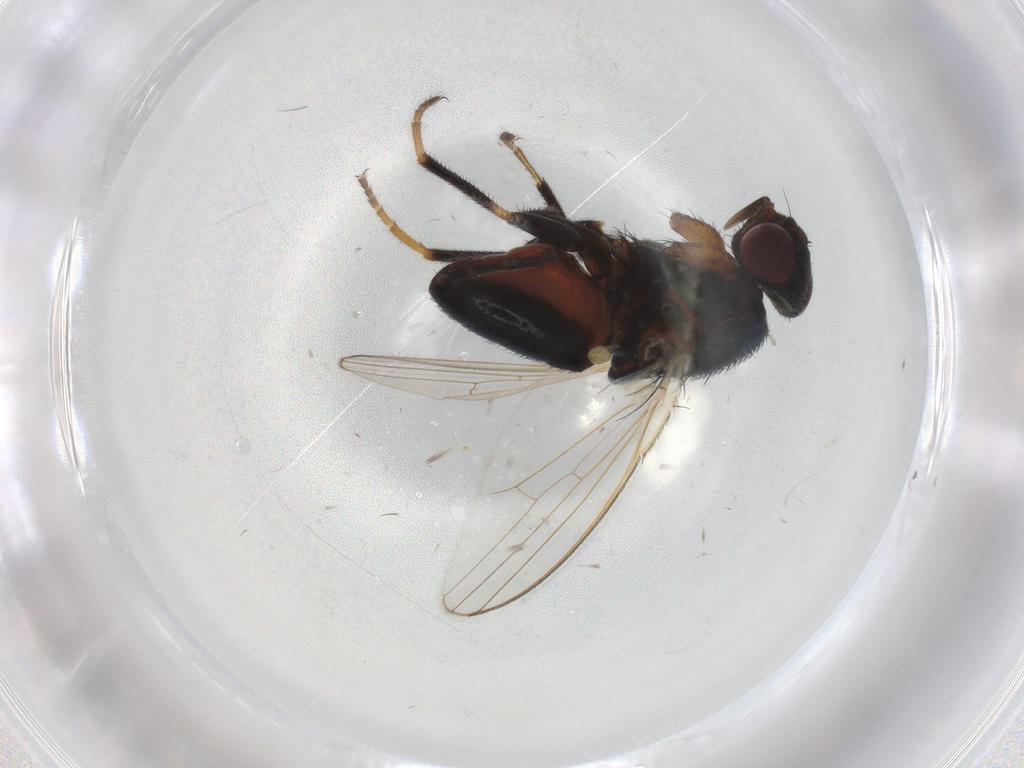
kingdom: Animalia
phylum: Arthropoda
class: Insecta
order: Diptera
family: Milichiidae
